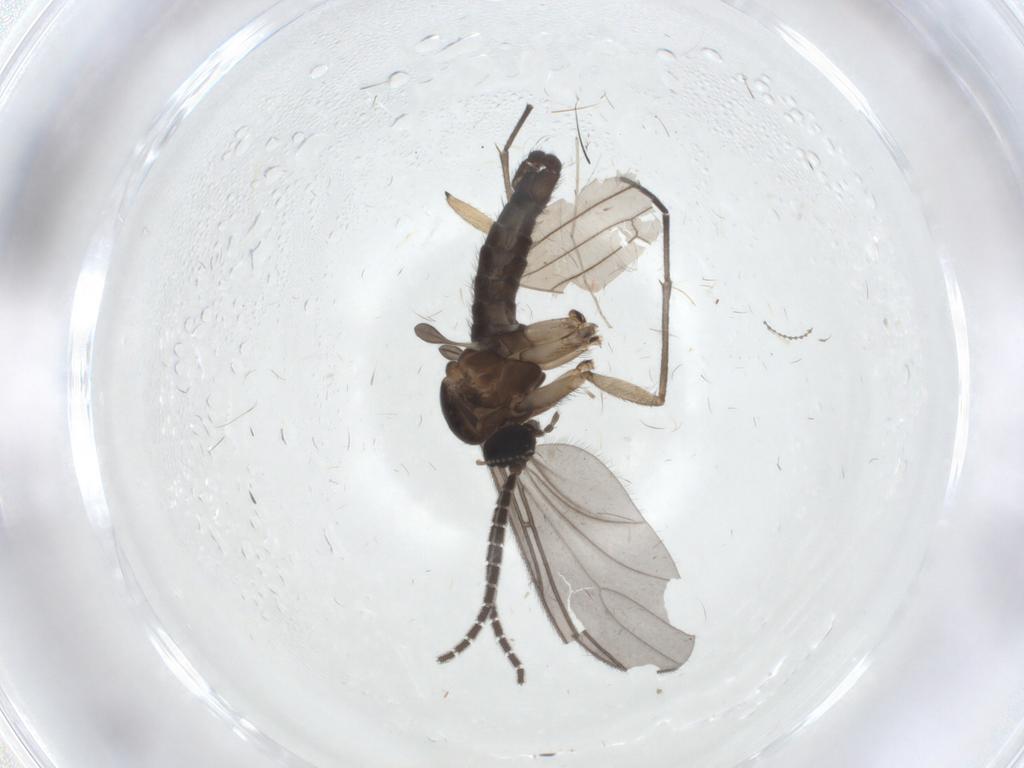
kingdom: Animalia
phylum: Arthropoda
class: Insecta
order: Diptera
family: Sciaridae
